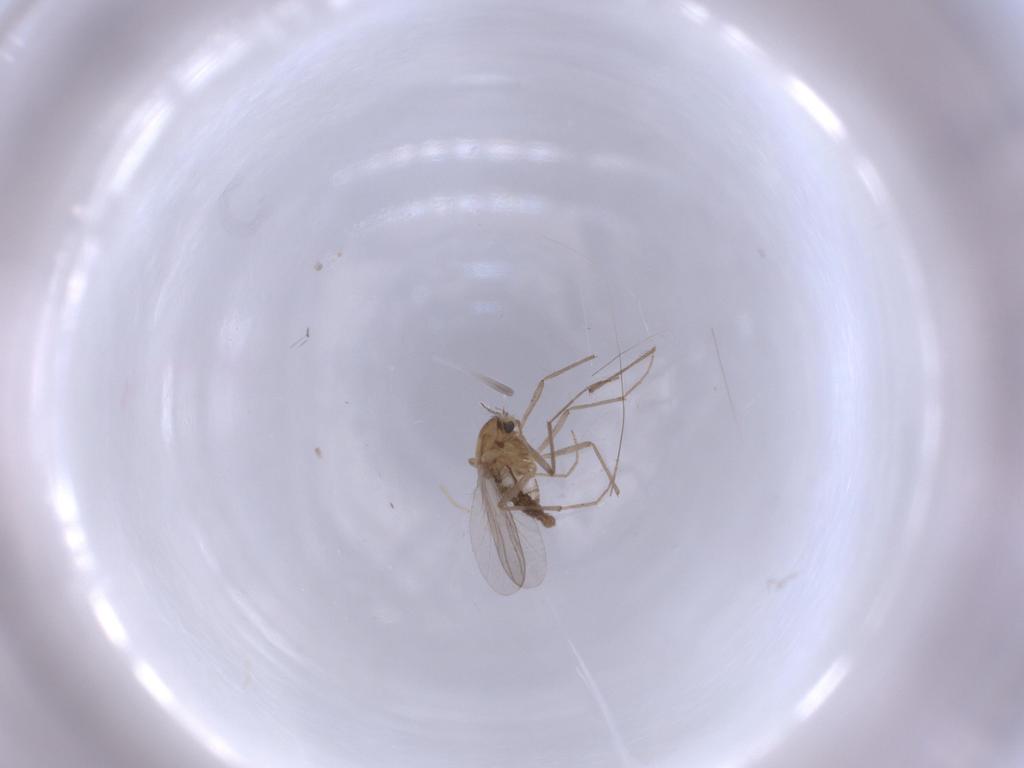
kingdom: Animalia
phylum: Arthropoda
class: Insecta
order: Diptera
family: Chironomidae
